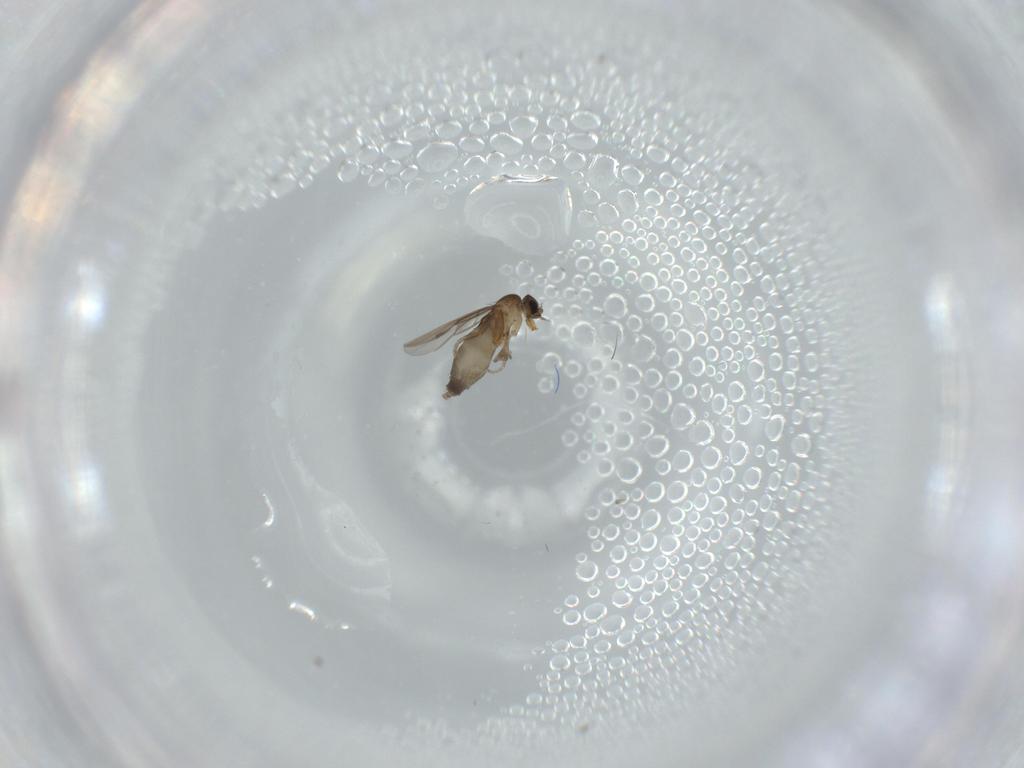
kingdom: Animalia
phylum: Arthropoda
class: Insecta
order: Diptera
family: Phoridae
